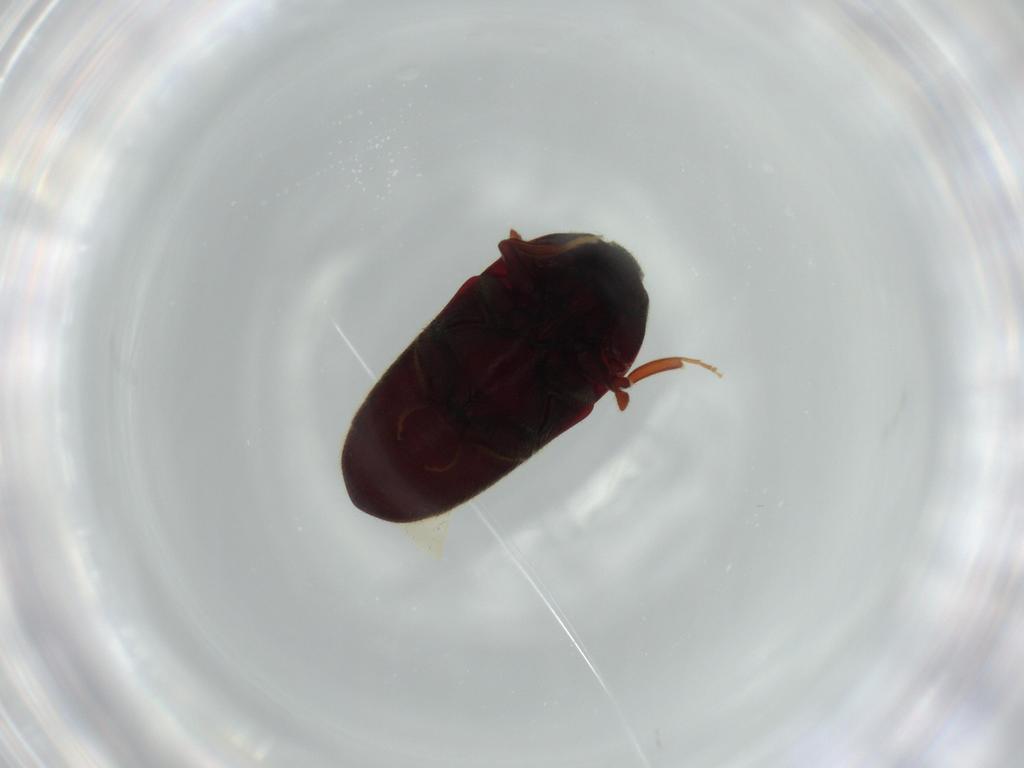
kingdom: Animalia
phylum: Arthropoda
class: Insecta
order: Coleoptera
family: Throscidae
